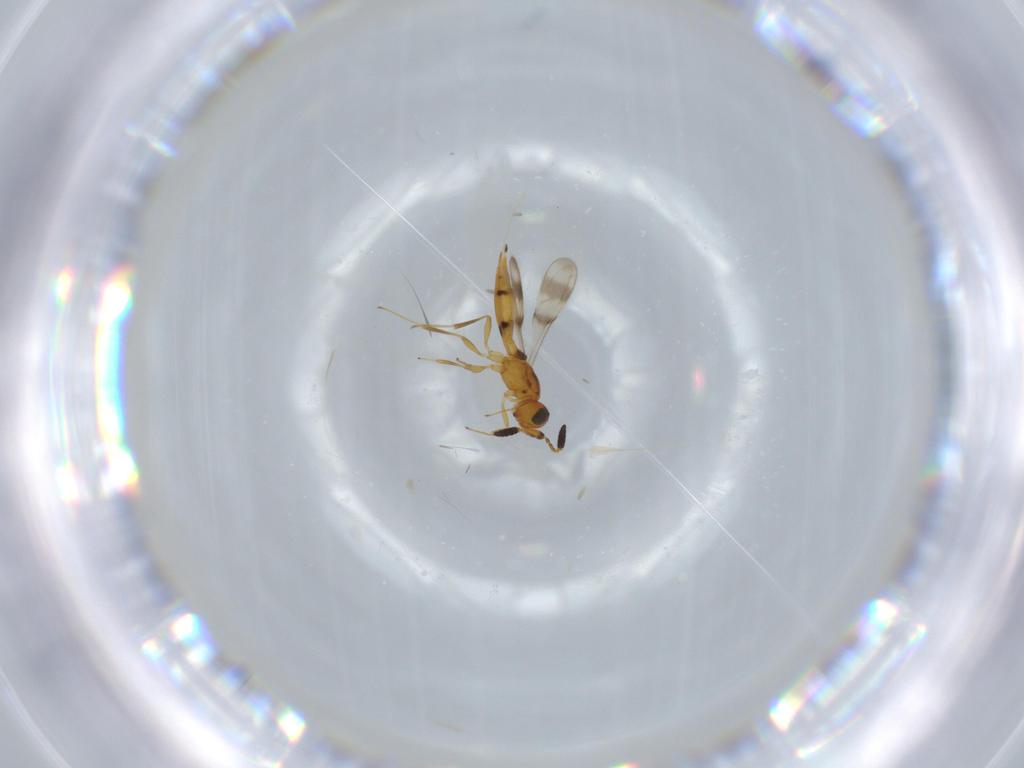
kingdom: Animalia
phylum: Arthropoda
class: Insecta
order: Hymenoptera
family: Scelionidae
